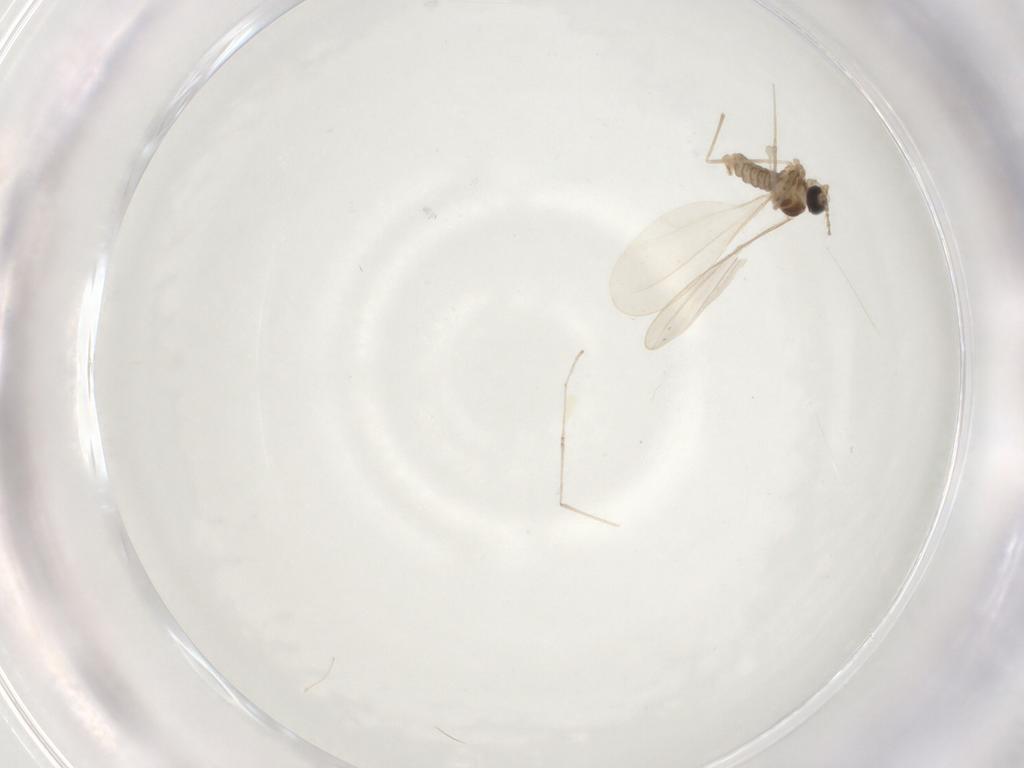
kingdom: Animalia
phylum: Arthropoda
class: Insecta
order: Diptera
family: Cecidomyiidae
